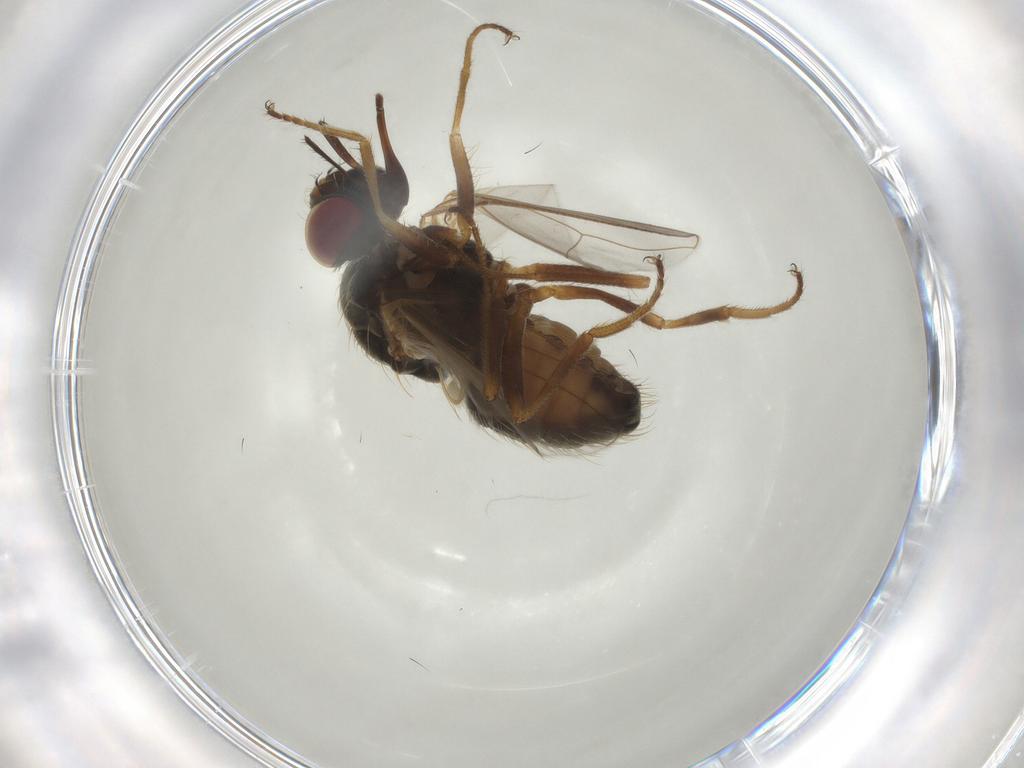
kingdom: Animalia
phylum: Arthropoda
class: Insecta
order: Diptera
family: Muscidae
